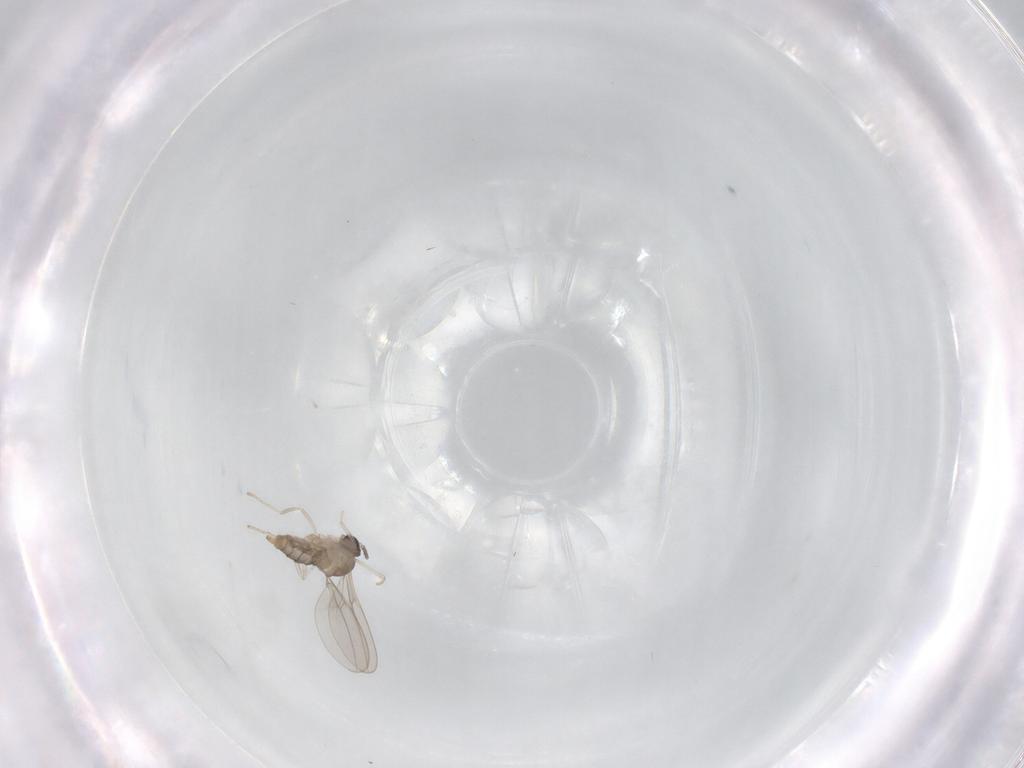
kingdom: Animalia
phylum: Arthropoda
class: Insecta
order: Diptera
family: Cecidomyiidae
